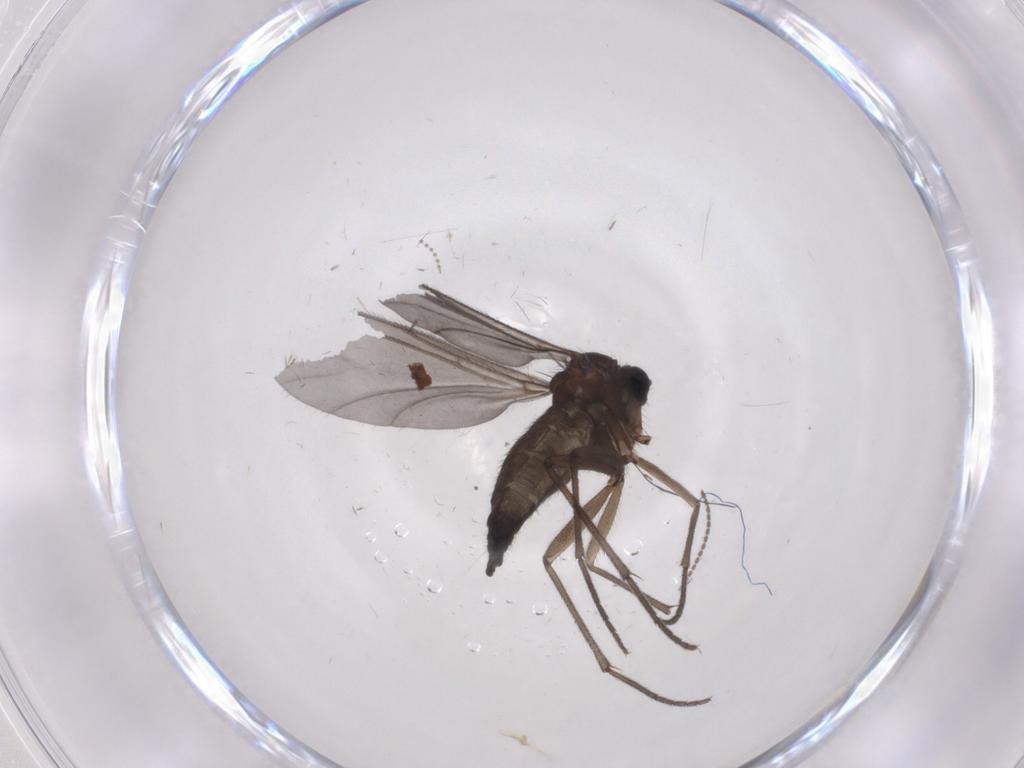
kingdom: Animalia
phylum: Arthropoda
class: Insecta
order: Diptera
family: Sciaridae
